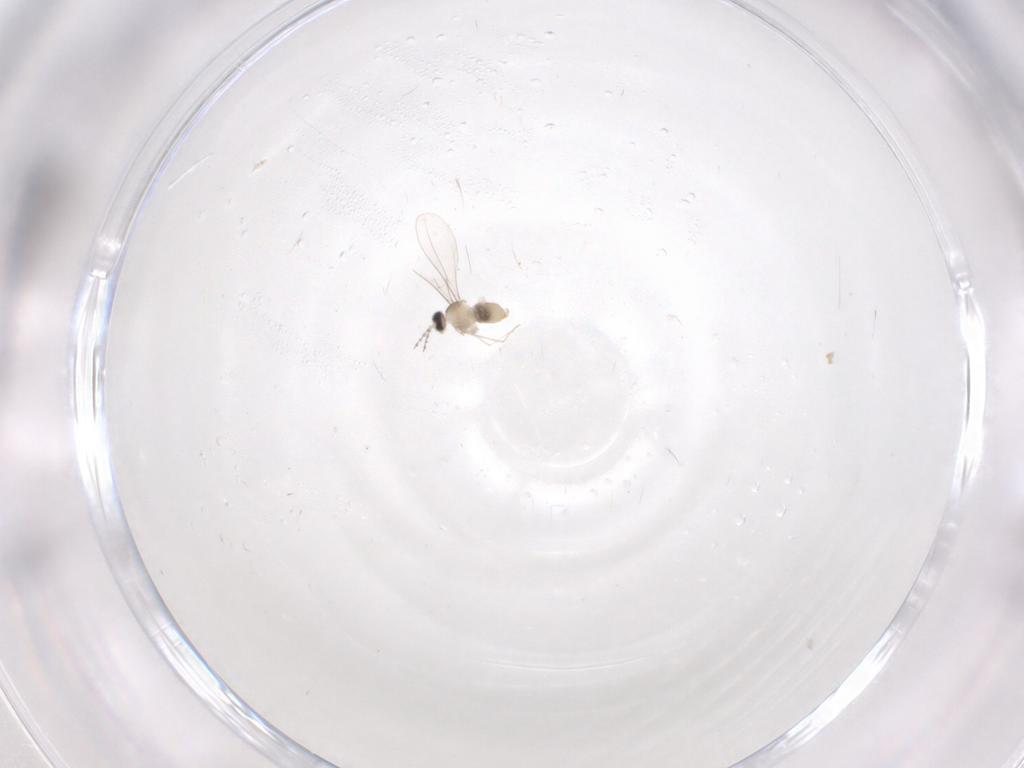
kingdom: Animalia
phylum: Arthropoda
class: Insecta
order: Diptera
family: Cecidomyiidae
